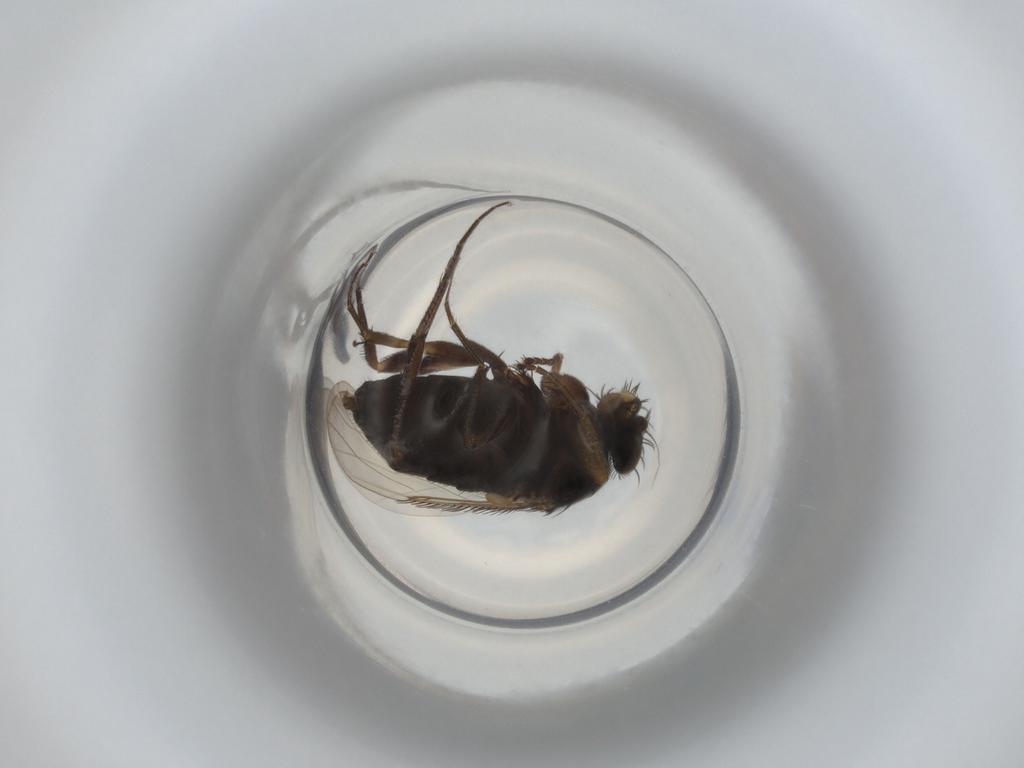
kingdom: Animalia
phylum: Arthropoda
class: Insecta
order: Diptera
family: Phoridae
